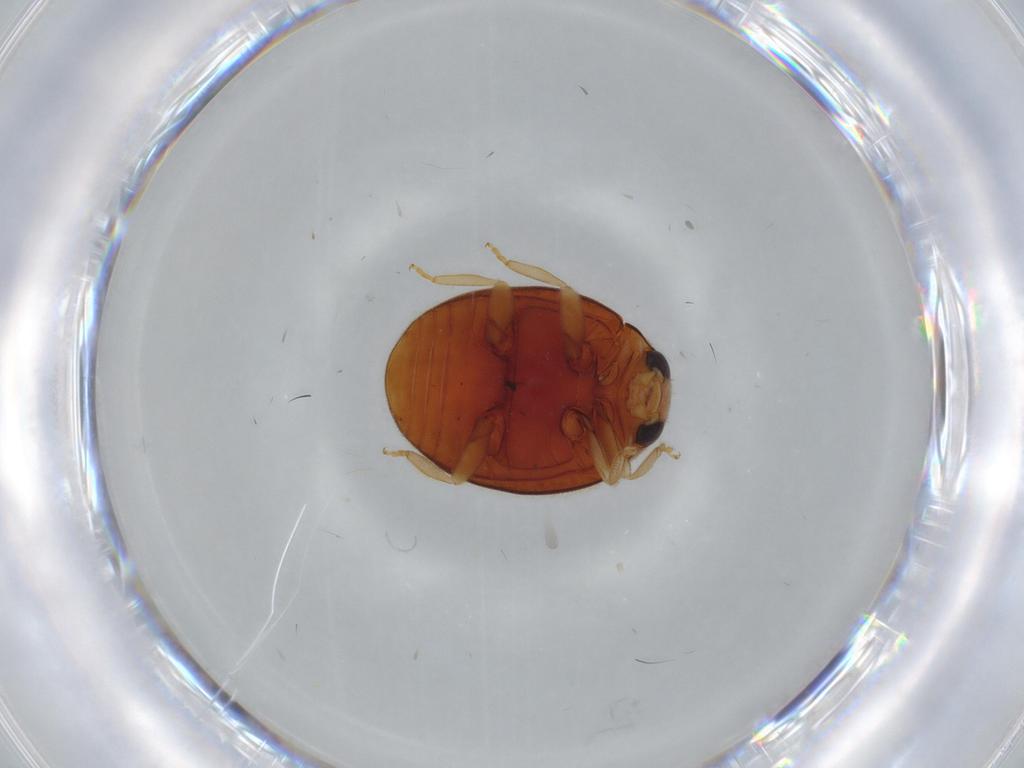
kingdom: Animalia
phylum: Arthropoda
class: Insecta
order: Coleoptera
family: Coccinellidae
